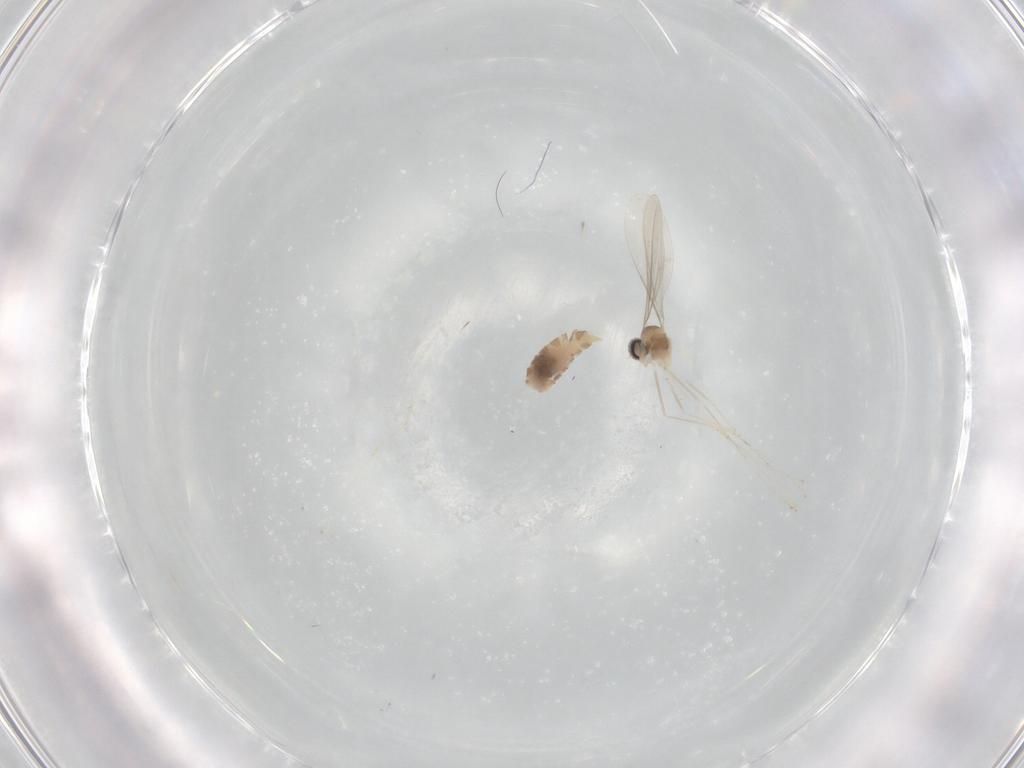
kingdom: Animalia
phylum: Arthropoda
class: Insecta
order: Diptera
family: Cecidomyiidae
